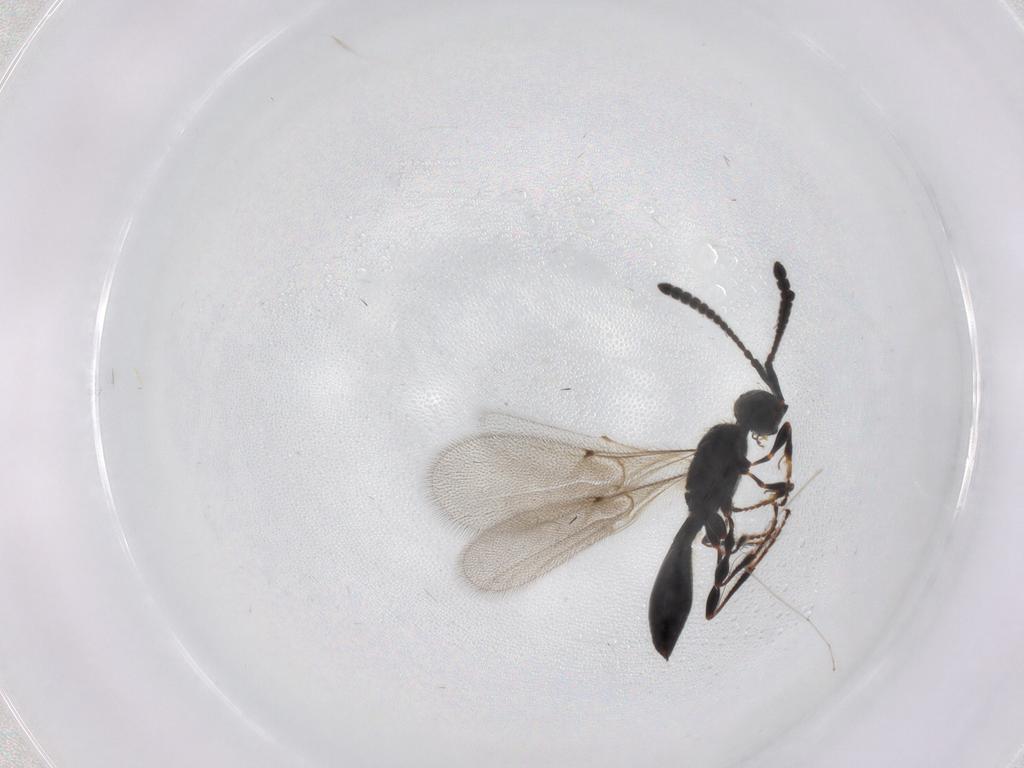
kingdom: Animalia
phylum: Arthropoda
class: Insecta
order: Hymenoptera
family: Diapriidae
